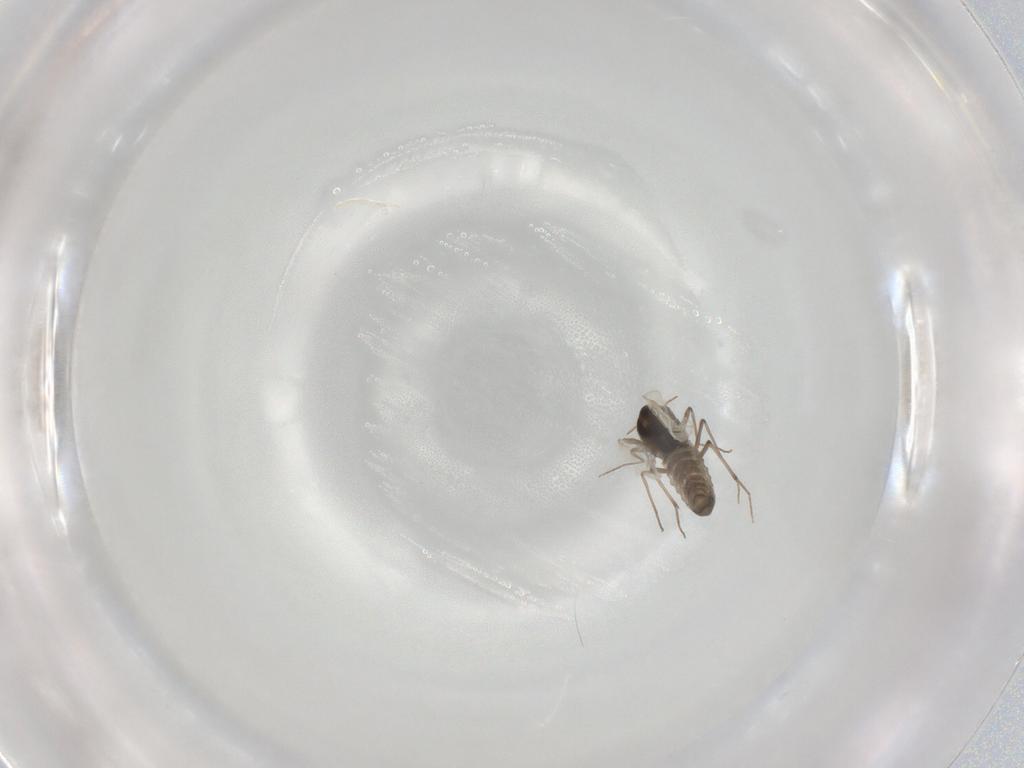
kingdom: Animalia
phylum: Arthropoda
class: Insecta
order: Diptera
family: Chironomidae
